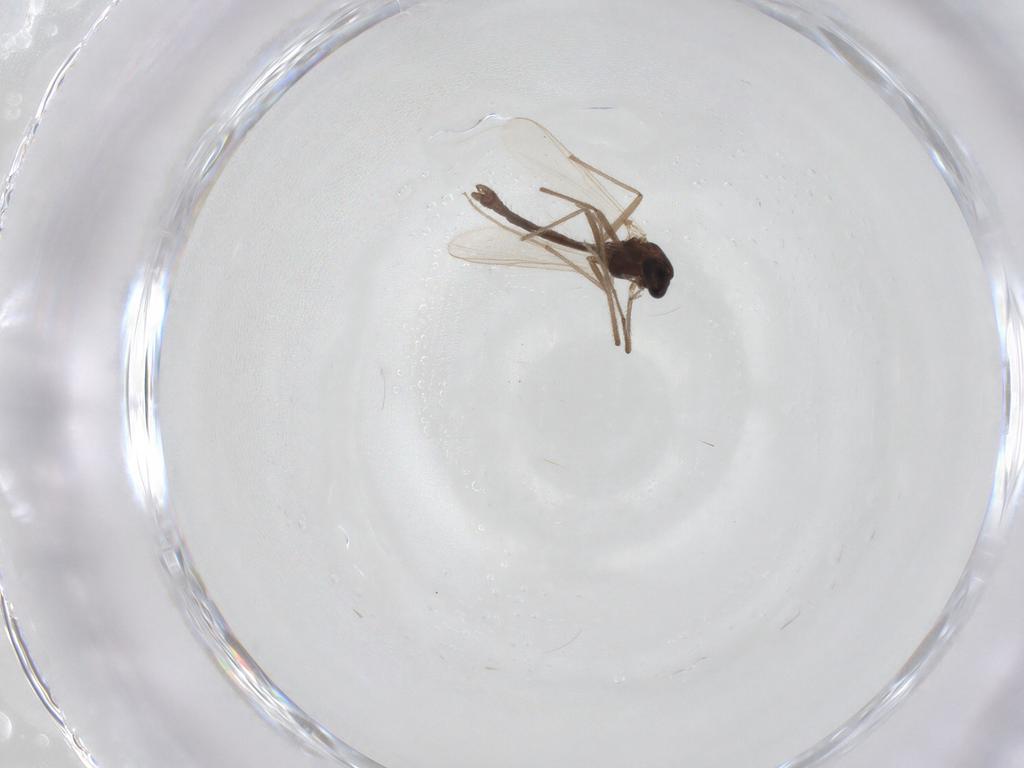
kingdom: Animalia
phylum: Arthropoda
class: Insecta
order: Diptera
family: Chironomidae
